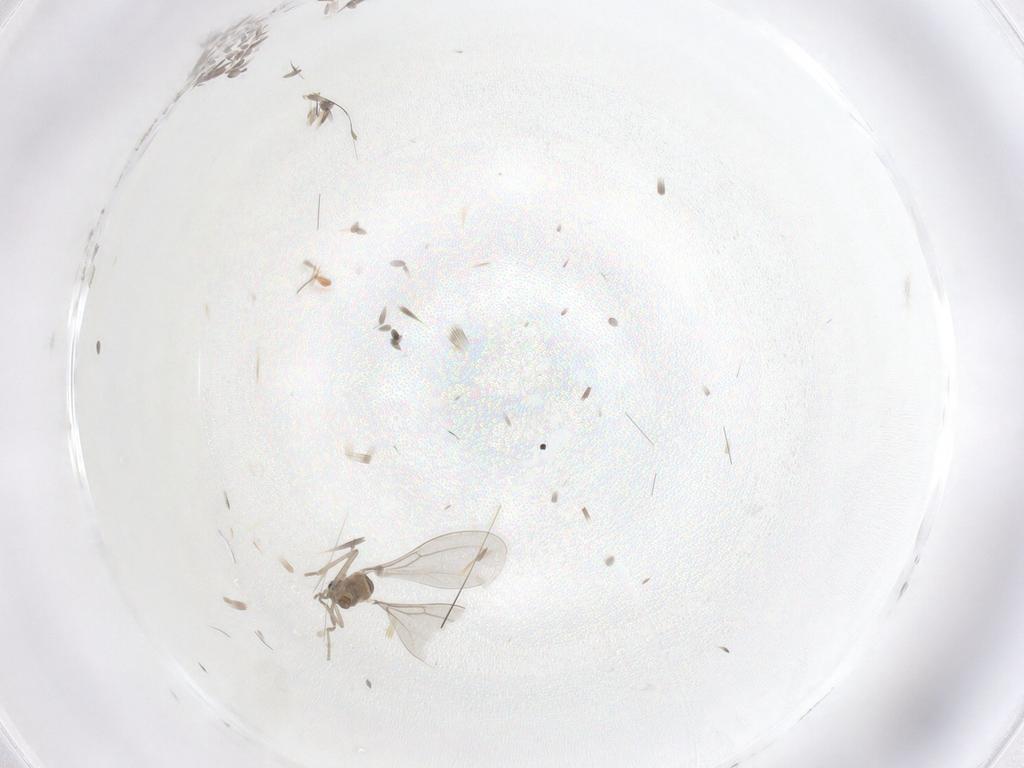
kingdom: Animalia
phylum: Arthropoda
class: Insecta
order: Diptera
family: Cecidomyiidae
